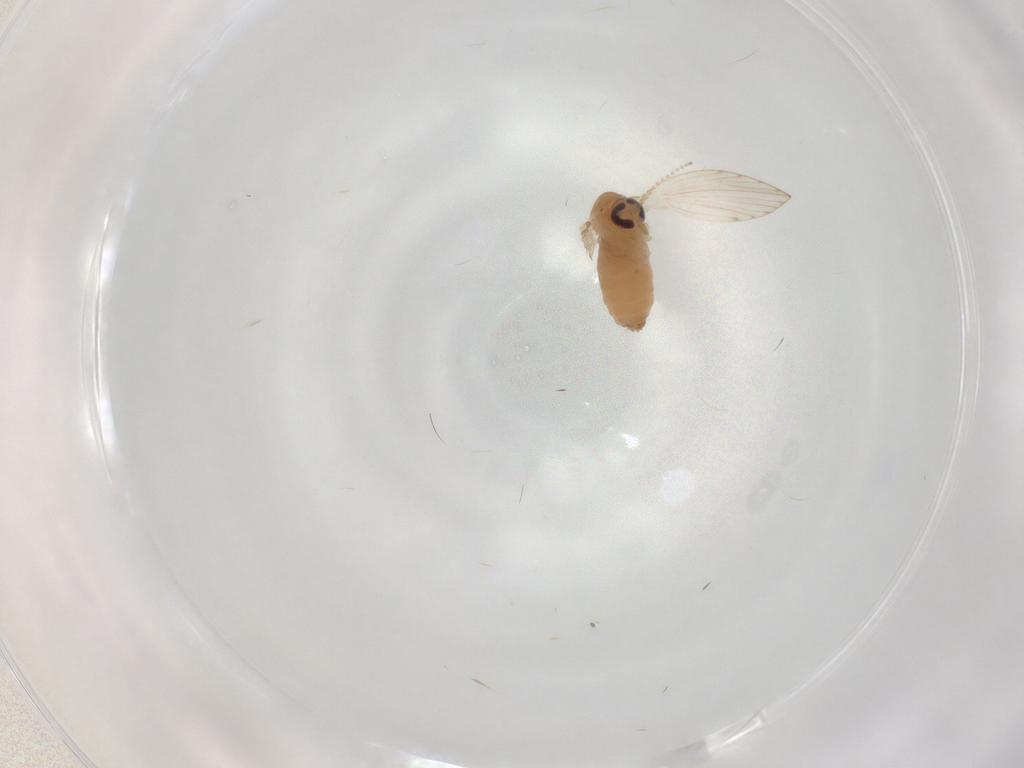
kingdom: Animalia
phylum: Arthropoda
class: Insecta
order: Diptera
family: Psychodidae
